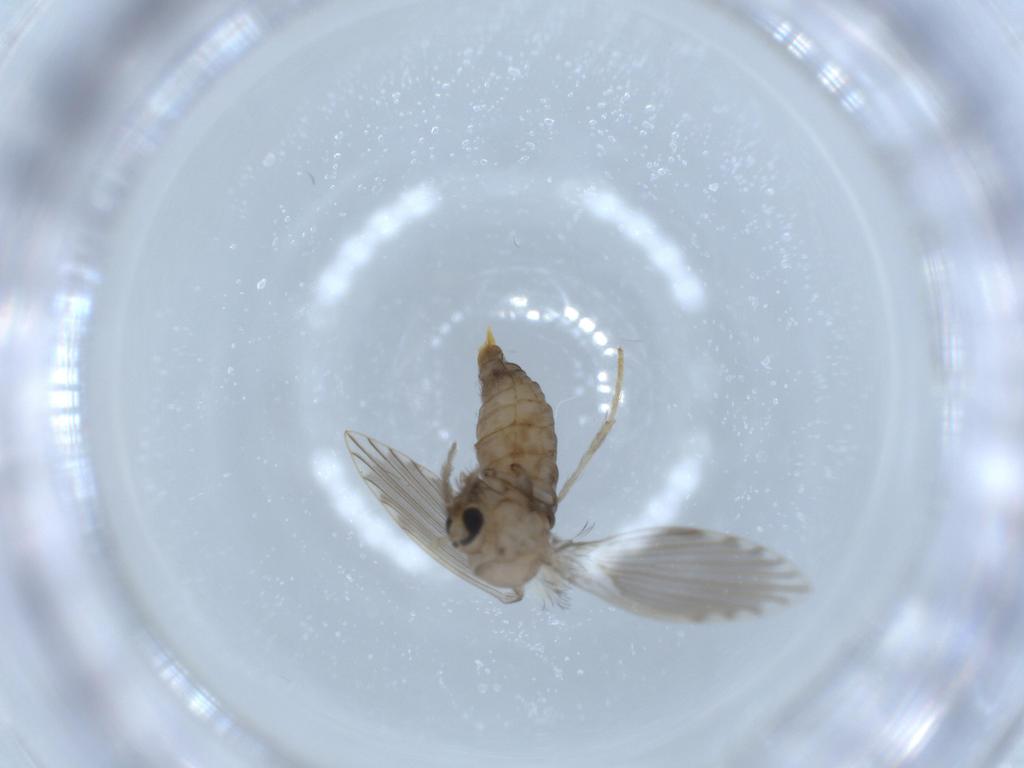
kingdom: Animalia
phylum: Arthropoda
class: Insecta
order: Diptera
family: Psychodidae
